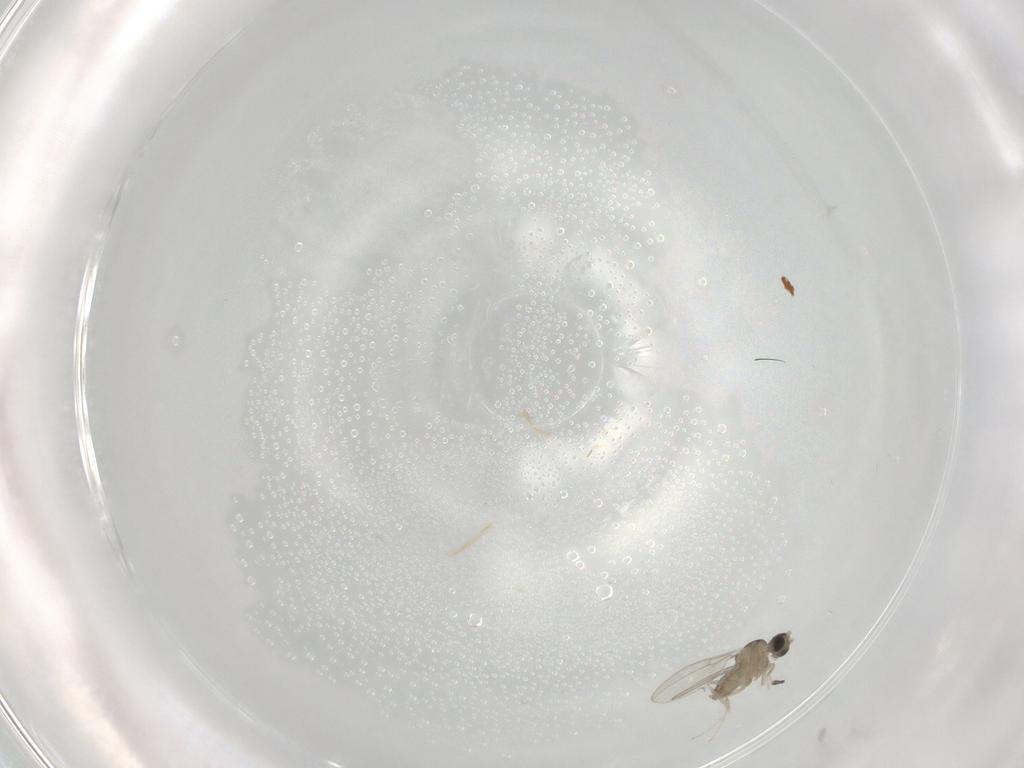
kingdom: Animalia
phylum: Arthropoda
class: Insecta
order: Diptera
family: Cecidomyiidae
